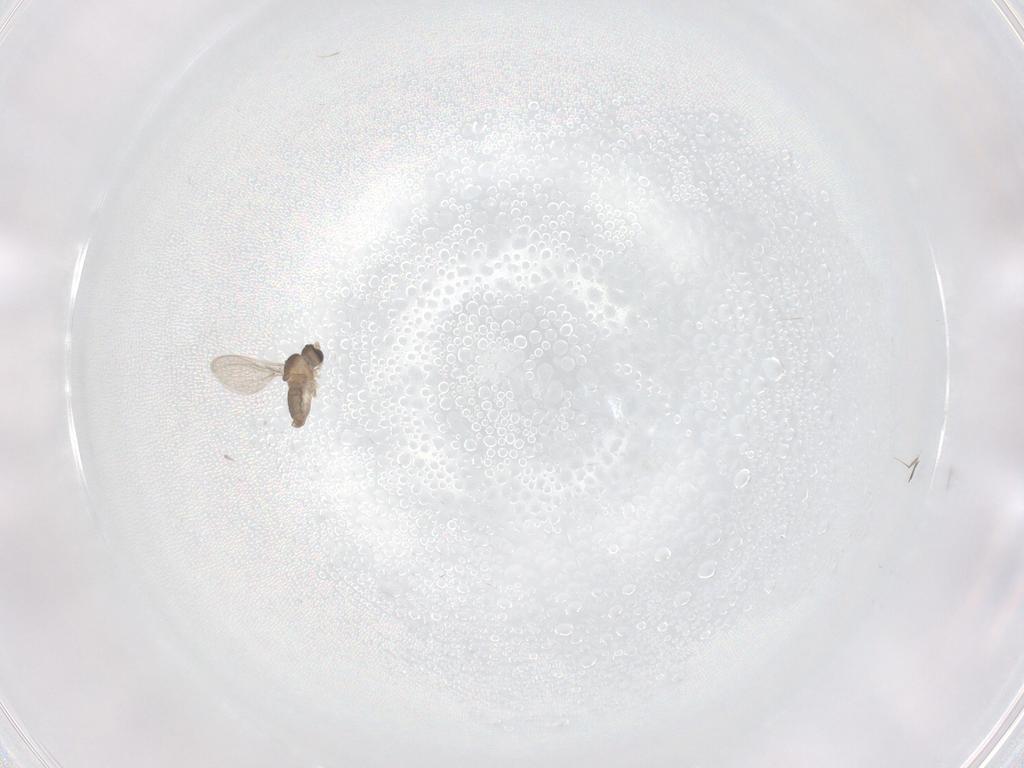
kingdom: Animalia
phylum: Arthropoda
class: Insecta
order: Diptera
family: Cecidomyiidae
